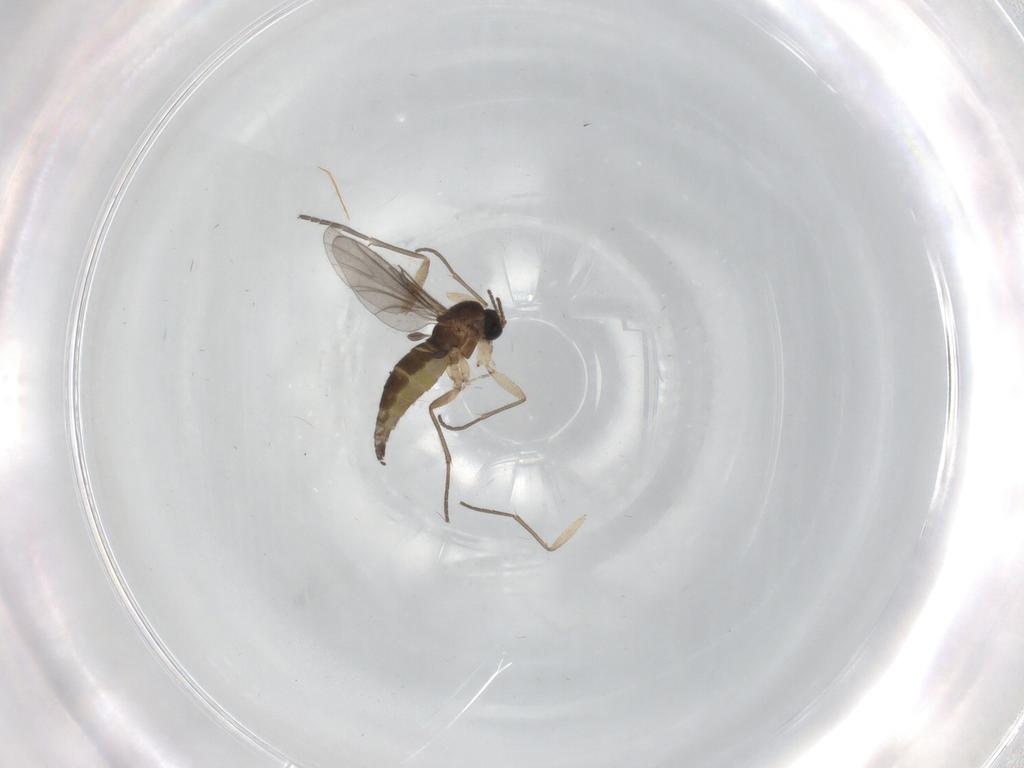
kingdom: Animalia
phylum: Arthropoda
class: Insecta
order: Diptera
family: Sciaridae
